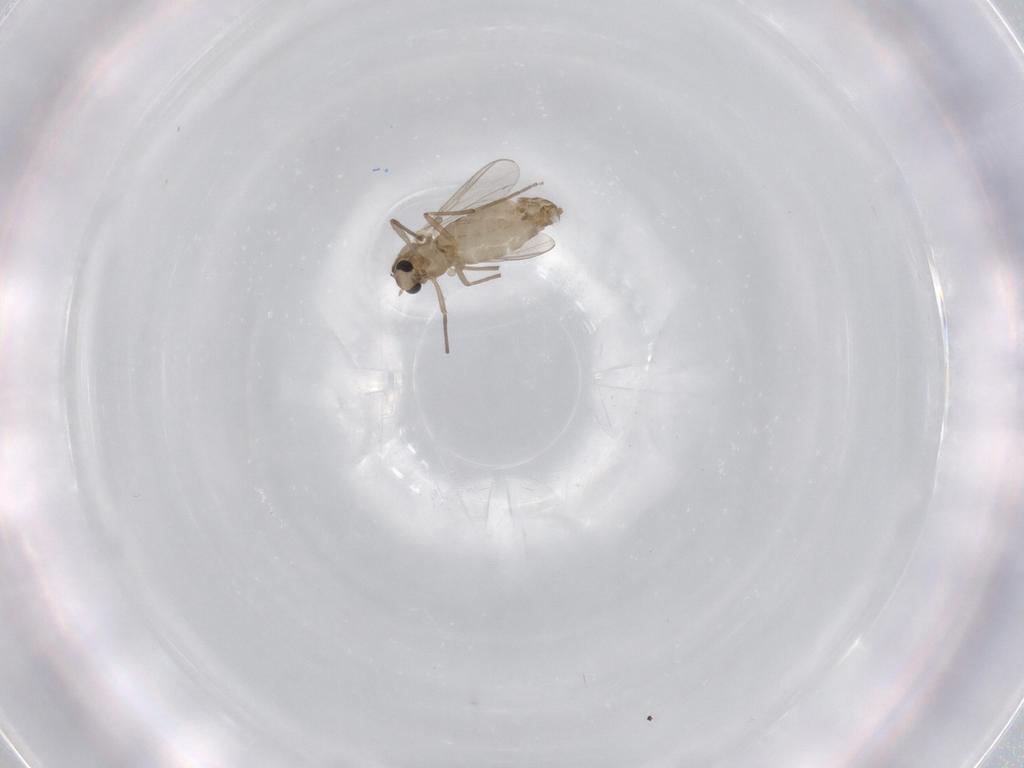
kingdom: Animalia
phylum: Arthropoda
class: Insecta
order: Diptera
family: Chironomidae
